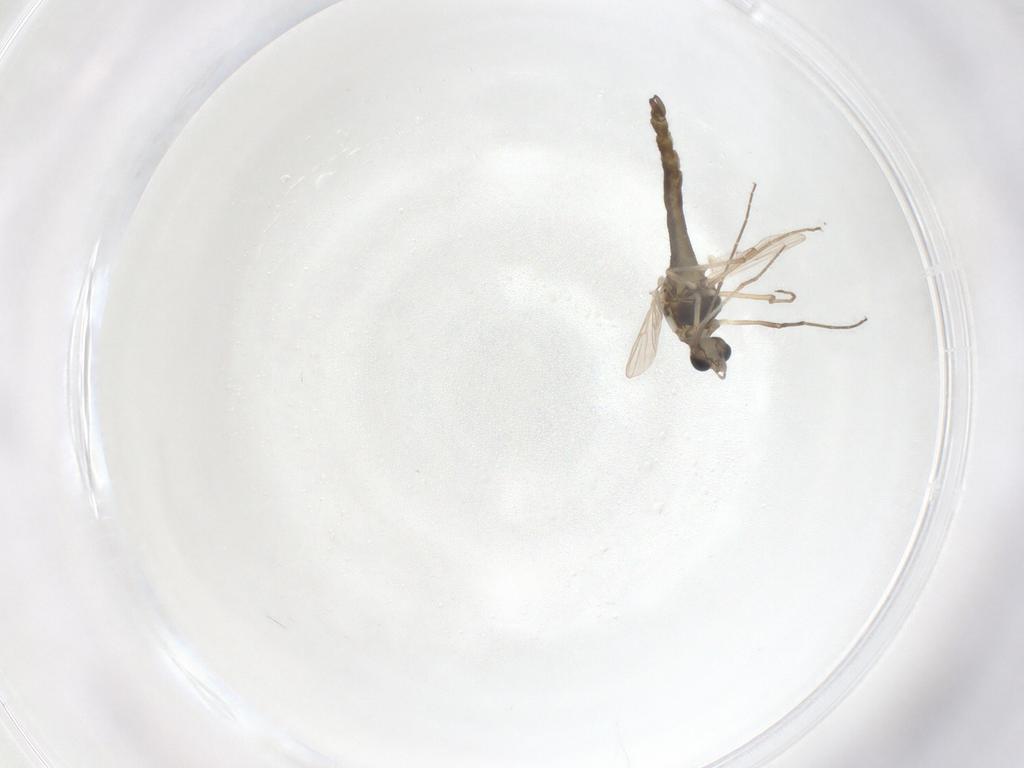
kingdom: Animalia
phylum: Arthropoda
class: Insecta
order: Diptera
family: Chironomidae
